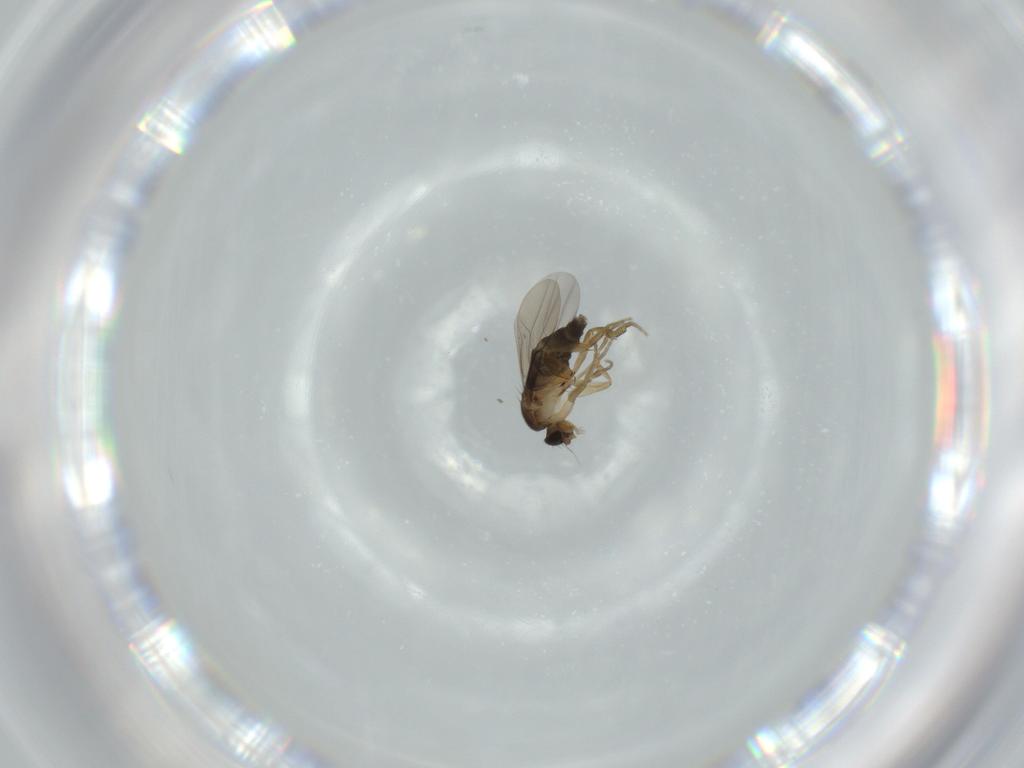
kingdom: Animalia
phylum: Arthropoda
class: Insecta
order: Diptera
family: Phoridae
